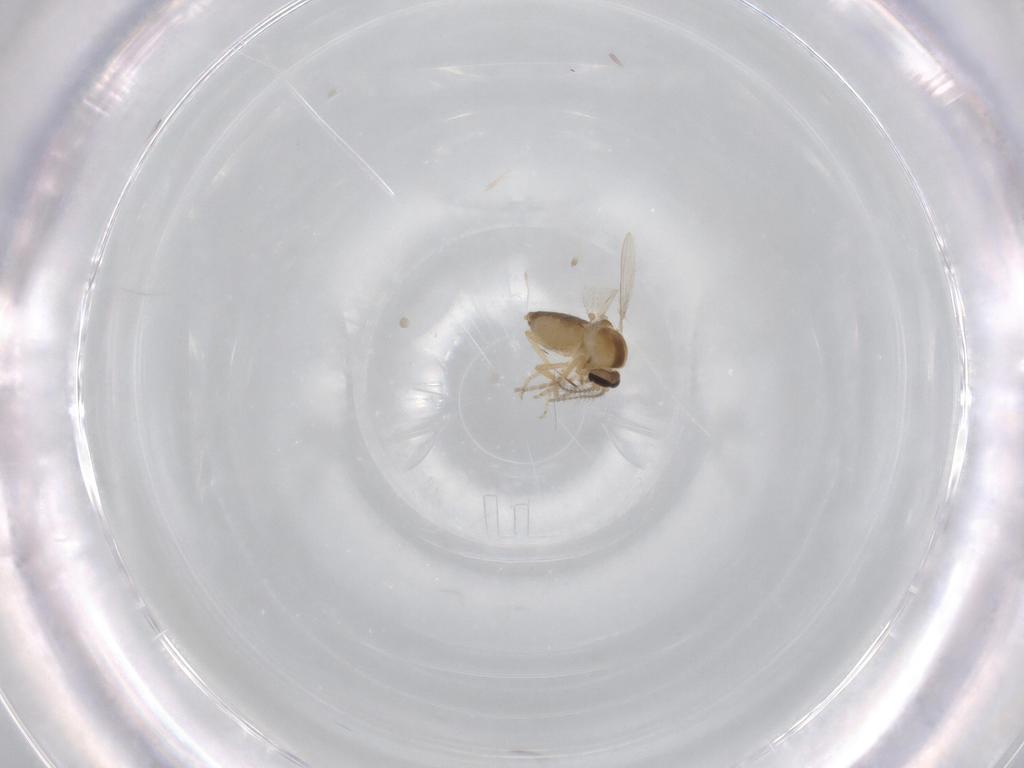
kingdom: Animalia
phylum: Arthropoda
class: Insecta
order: Diptera
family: Ceratopogonidae
